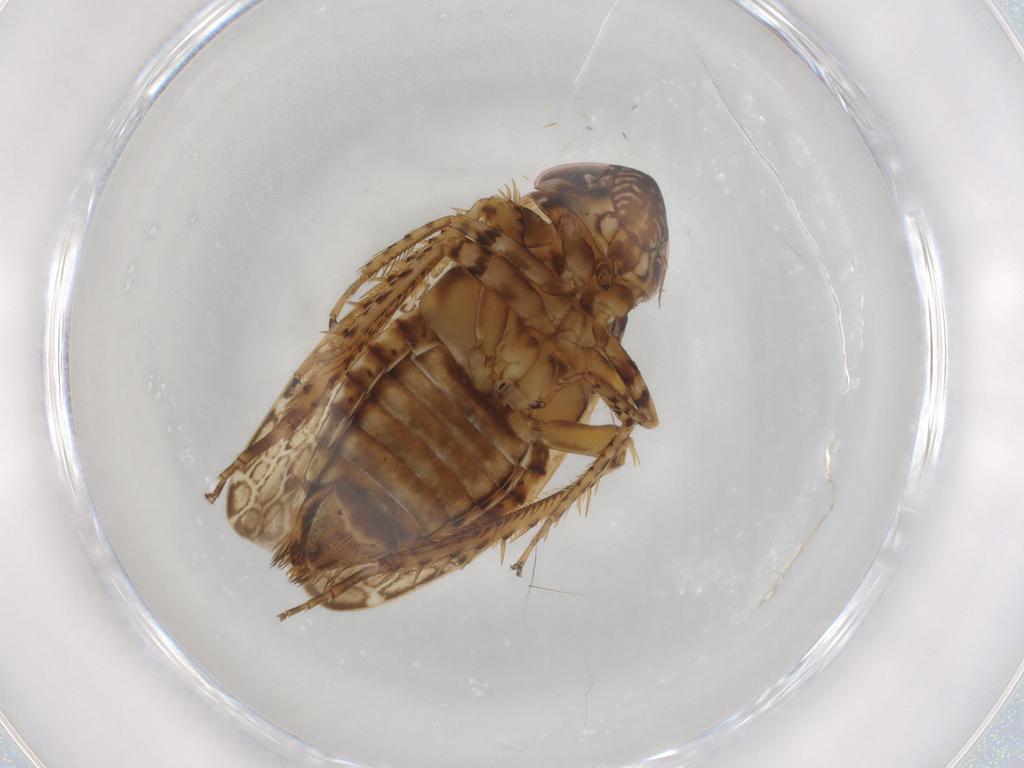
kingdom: Animalia
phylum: Arthropoda
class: Insecta
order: Hemiptera
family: Cicadellidae
